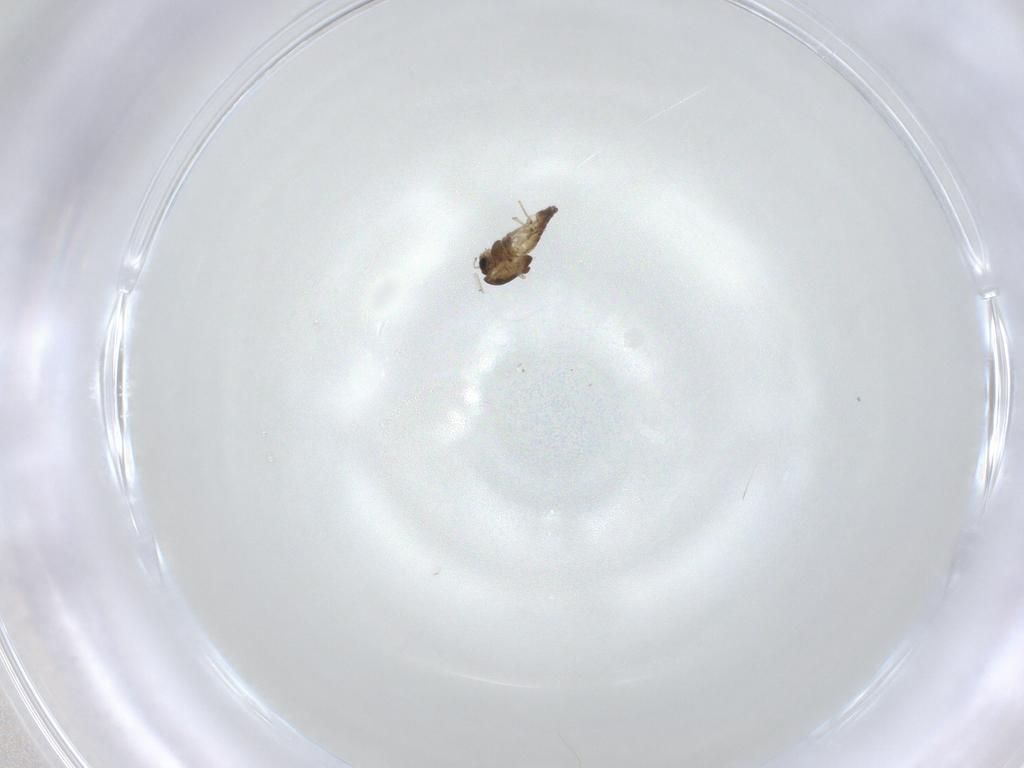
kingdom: Animalia
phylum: Arthropoda
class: Insecta
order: Diptera
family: Chironomidae
